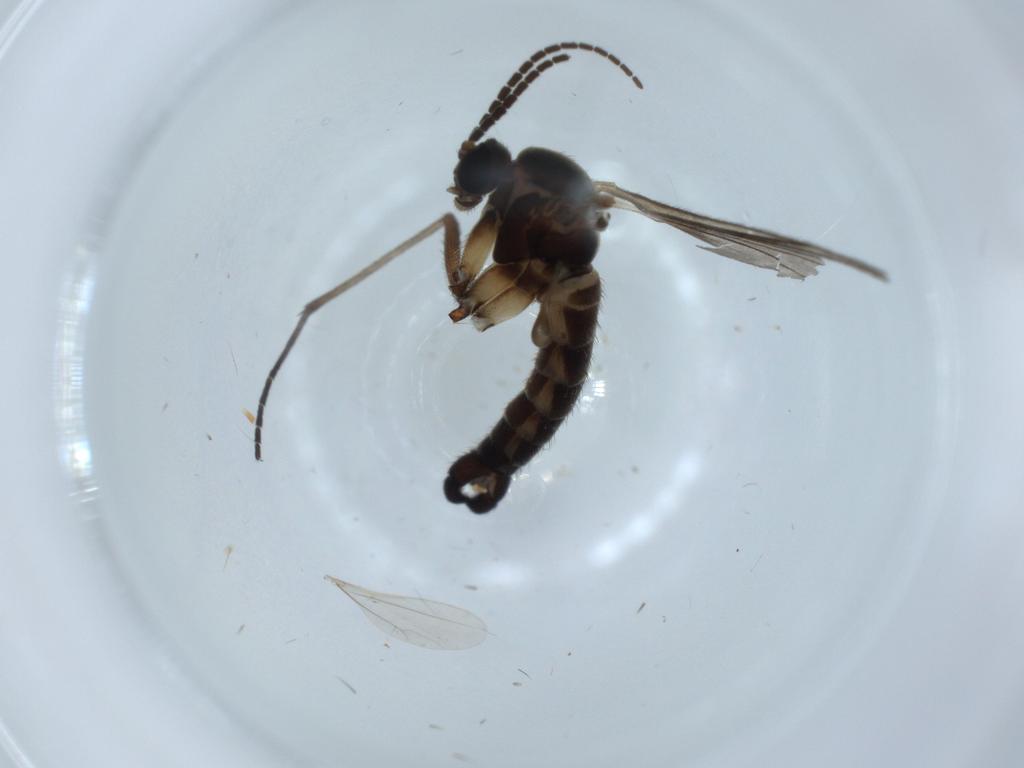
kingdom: Animalia
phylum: Arthropoda
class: Insecta
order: Diptera
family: Sciaridae
